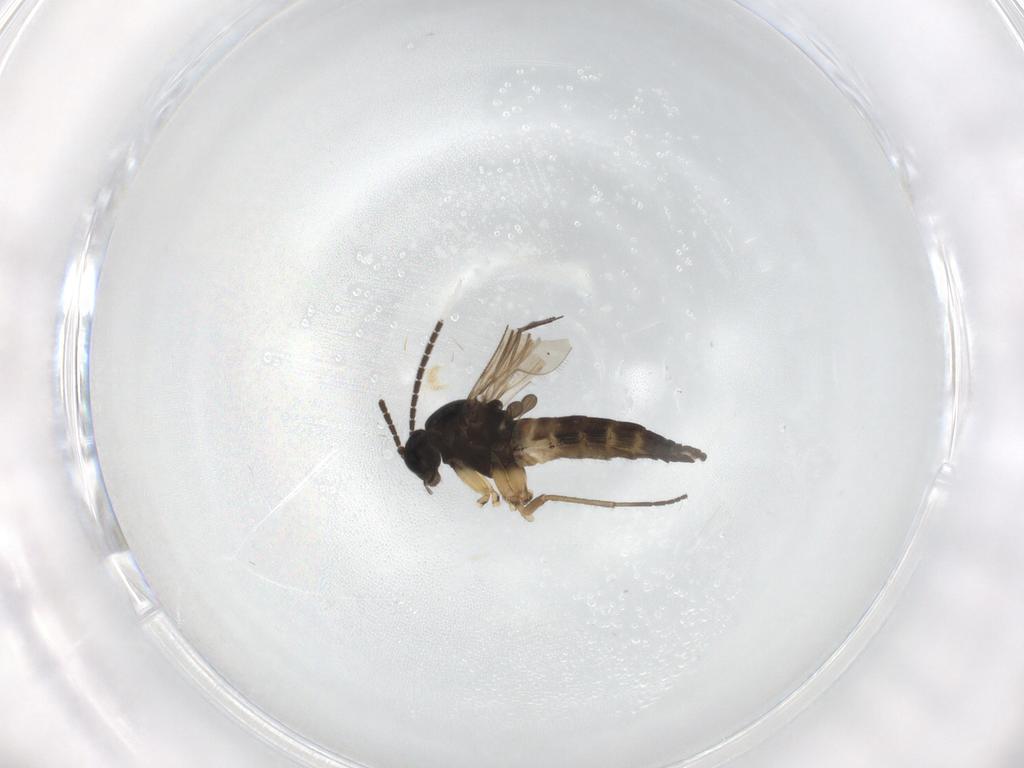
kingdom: Animalia
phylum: Arthropoda
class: Insecta
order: Diptera
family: Sciaridae
